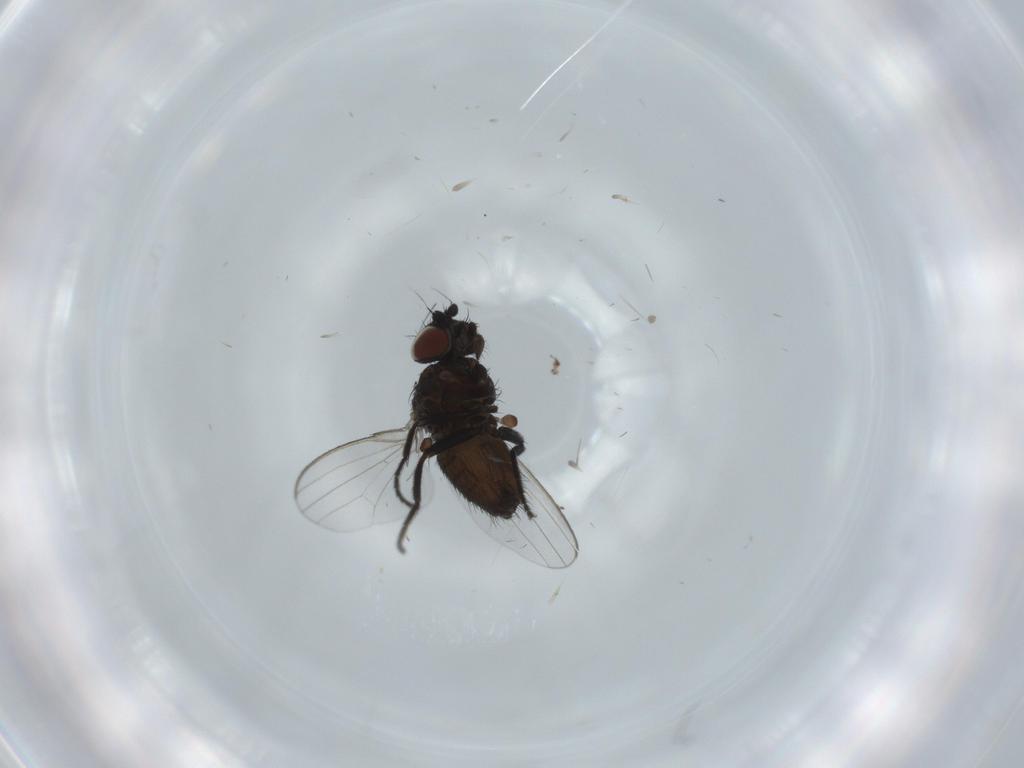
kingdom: Animalia
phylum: Arthropoda
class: Insecta
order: Diptera
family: Milichiidae
